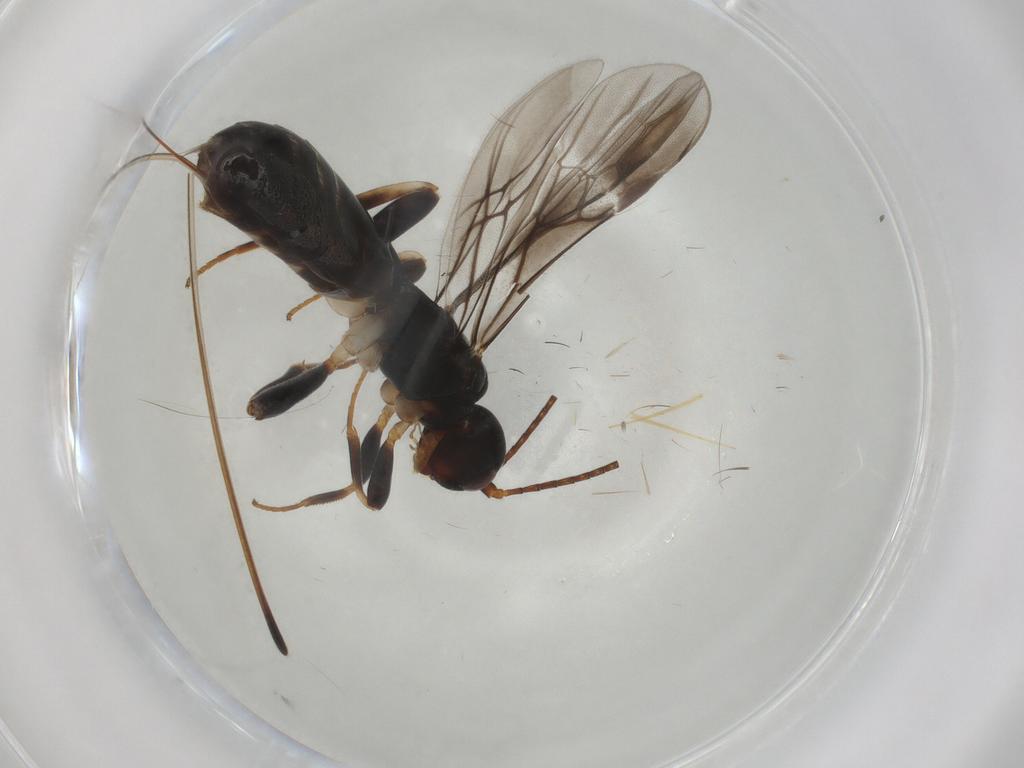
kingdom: Animalia
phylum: Arthropoda
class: Insecta
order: Hymenoptera
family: Braconidae
